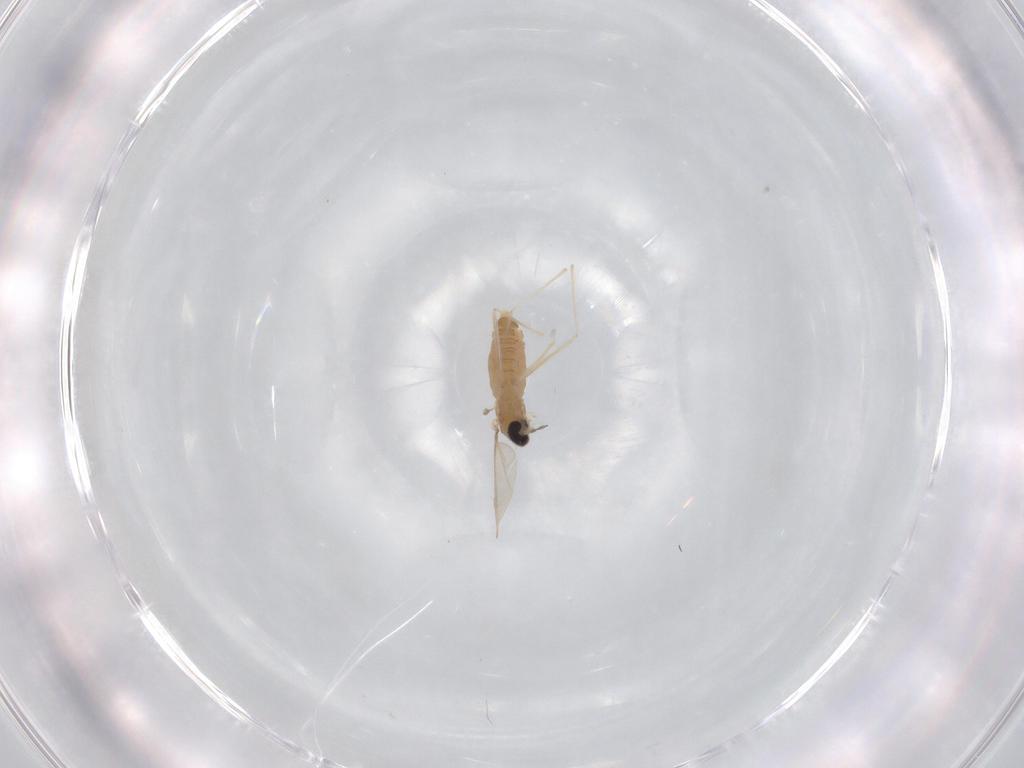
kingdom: Animalia
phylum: Arthropoda
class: Insecta
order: Diptera
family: Cecidomyiidae
